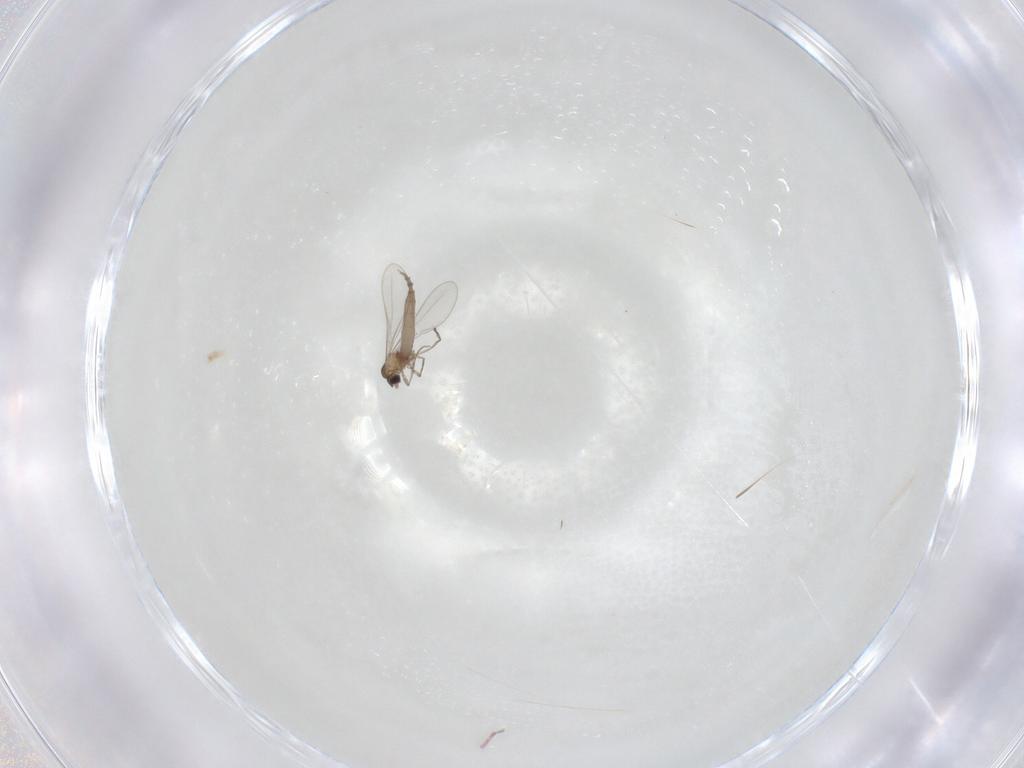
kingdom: Animalia
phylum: Arthropoda
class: Insecta
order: Diptera
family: Cecidomyiidae
